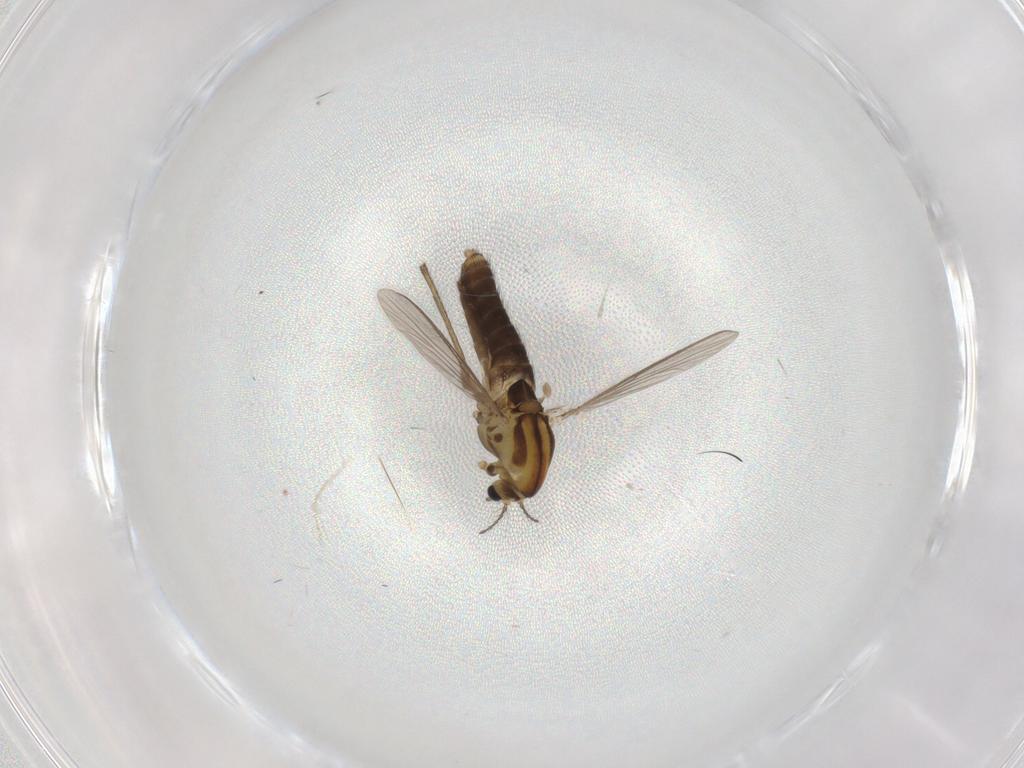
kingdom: Animalia
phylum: Arthropoda
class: Insecta
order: Diptera
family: Chironomidae
